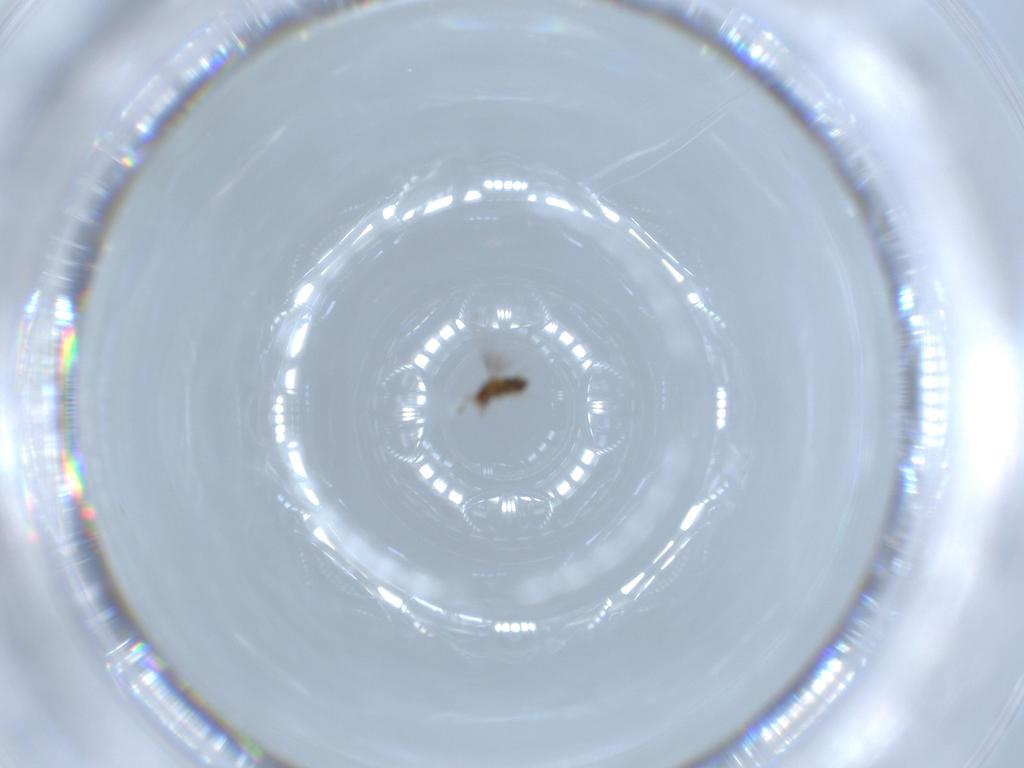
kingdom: Animalia
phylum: Arthropoda
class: Insecta
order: Hymenoptera
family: Trichogrammatidae
